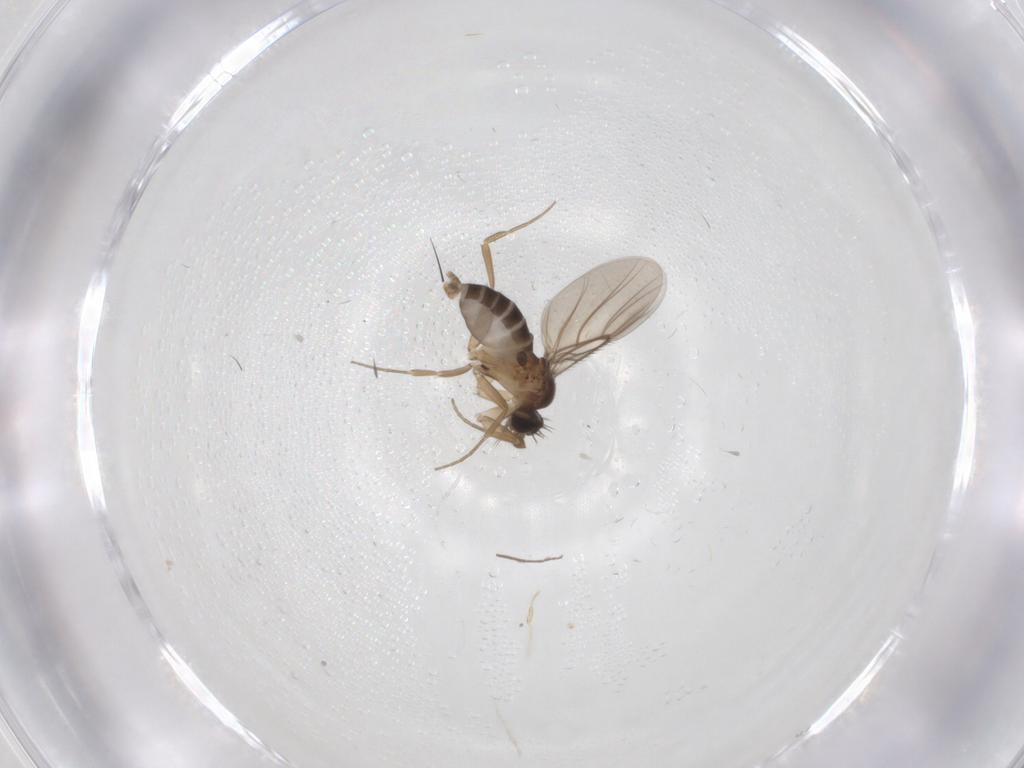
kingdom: Animalia
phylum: Arthropoda
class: Insecta
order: Diptera
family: Phoridae
